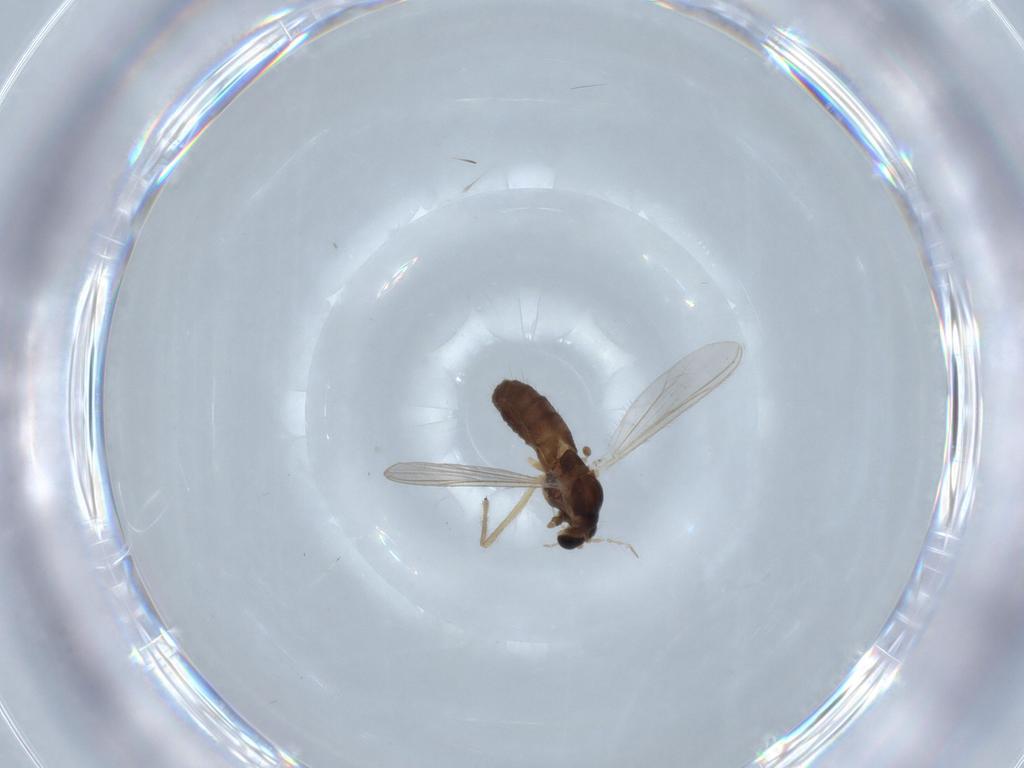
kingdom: Animalia
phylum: Arthropoda
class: Insecta
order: Diptera
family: Chironomidae
